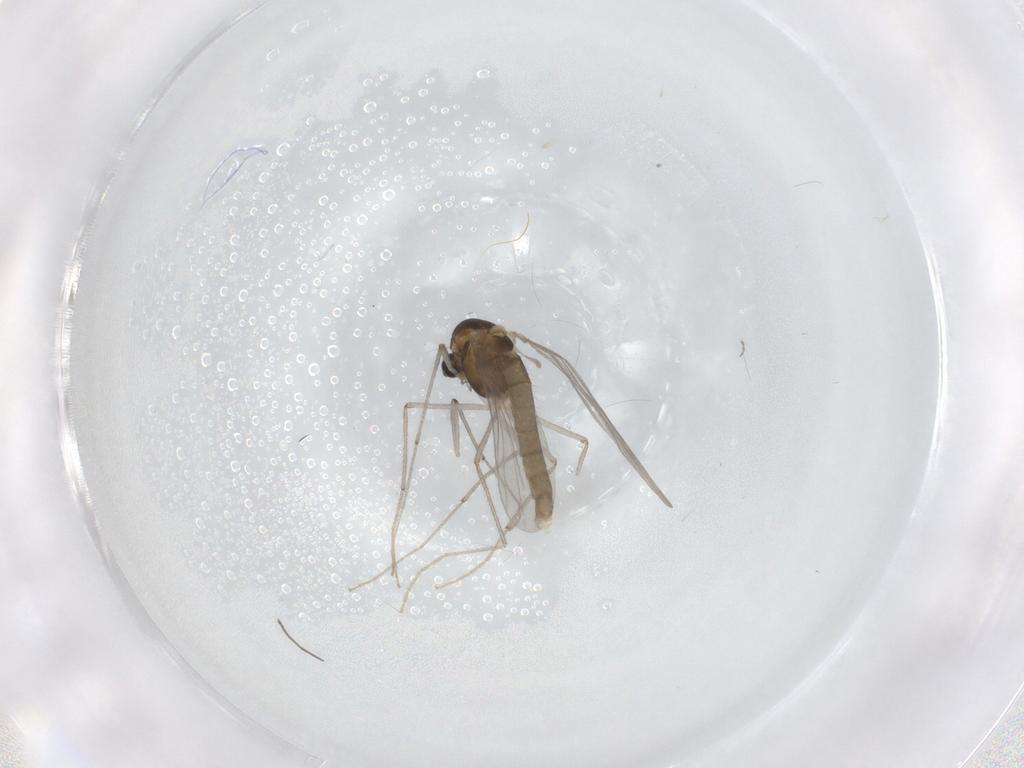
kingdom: Animalia
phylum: Arthropoda
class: Insecta
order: Diptera
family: Chironomidae
